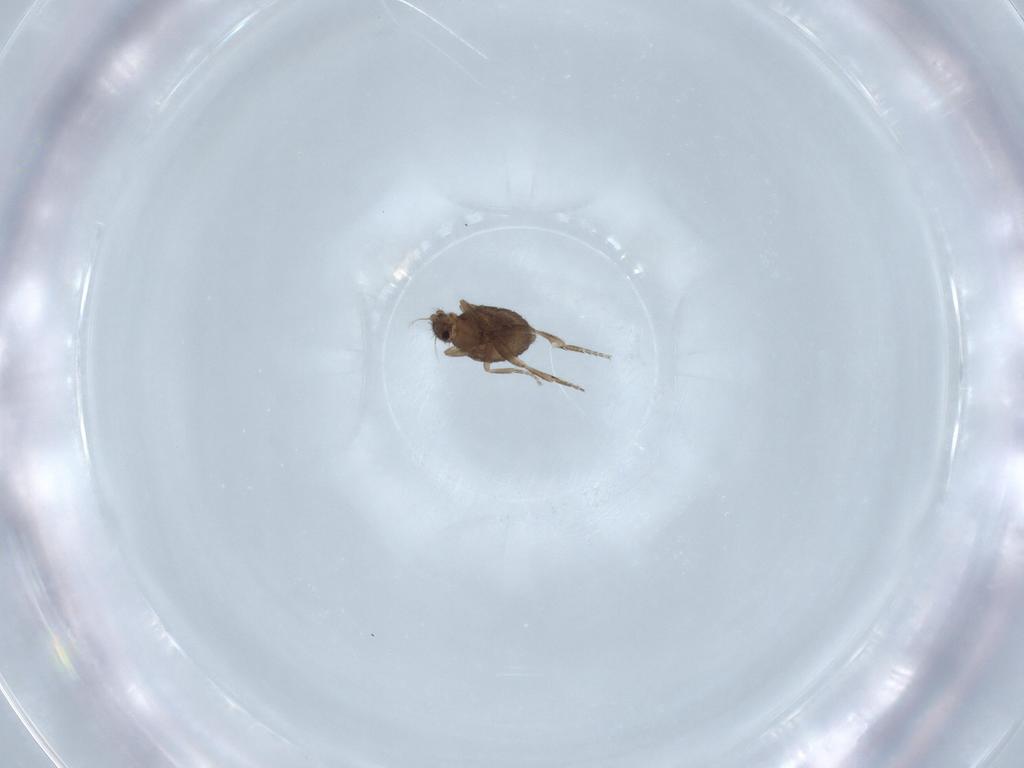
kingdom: Animalia
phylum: Arthropoda
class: Insecta
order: Diptera
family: Phoridae
